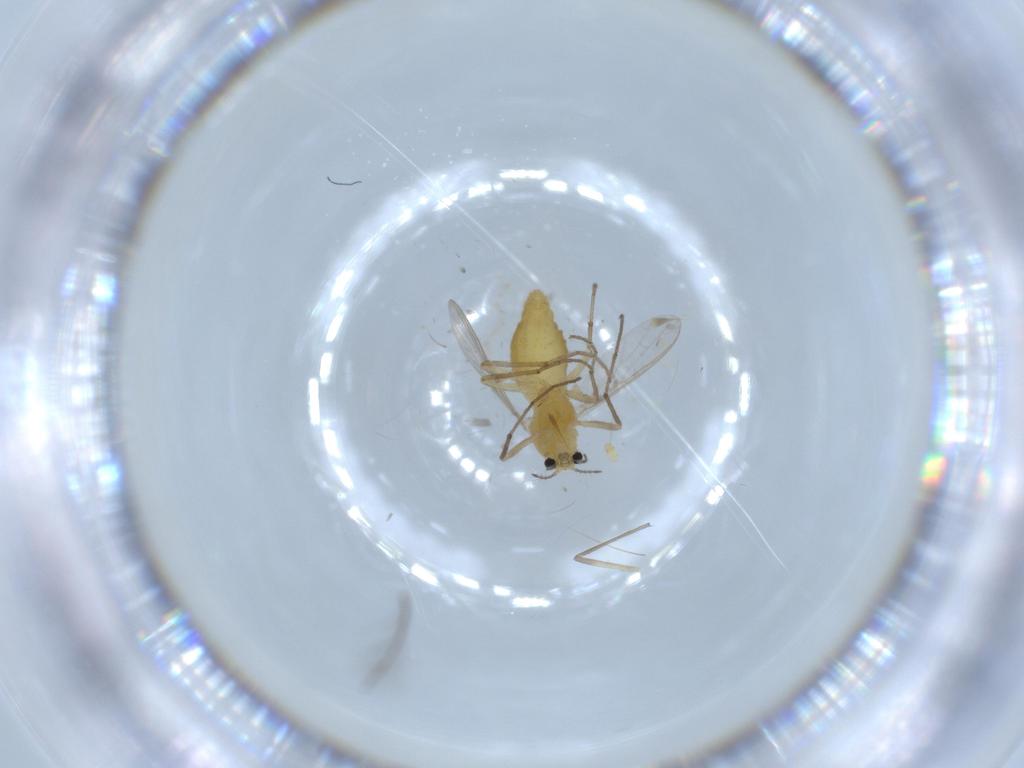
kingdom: Animalia
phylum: Arthropoda
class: Insecta
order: Diptera
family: Chironomidae
